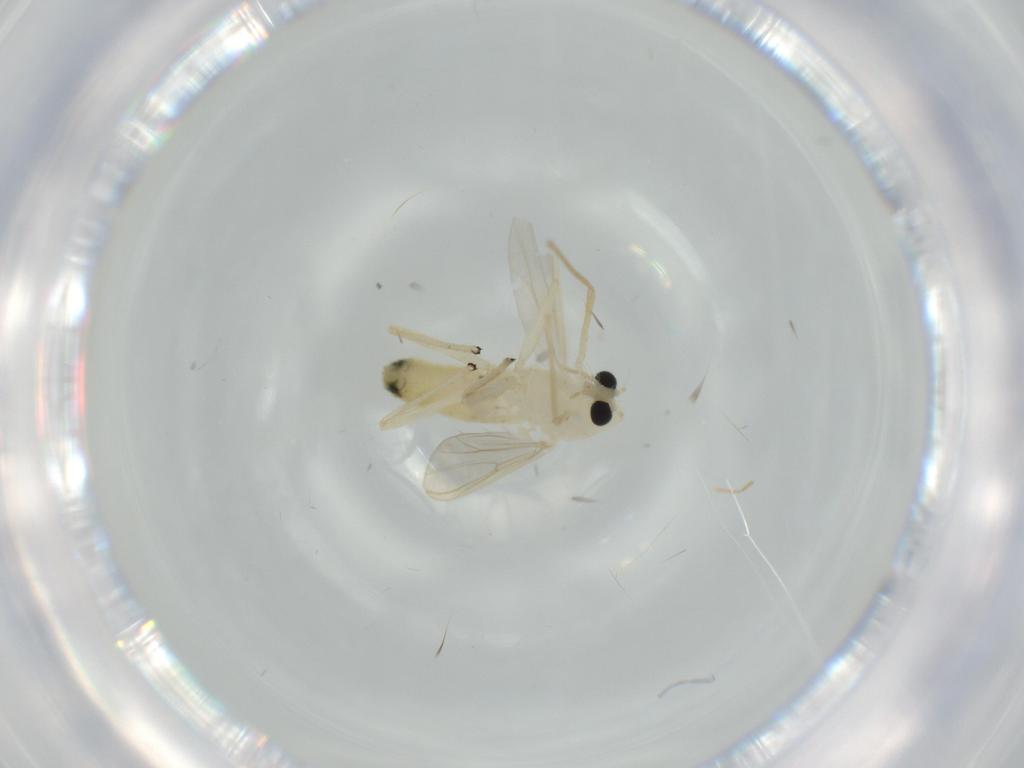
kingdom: Animalia
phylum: Arthropoda
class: Insecta
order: Diptera
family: Chironomidae
